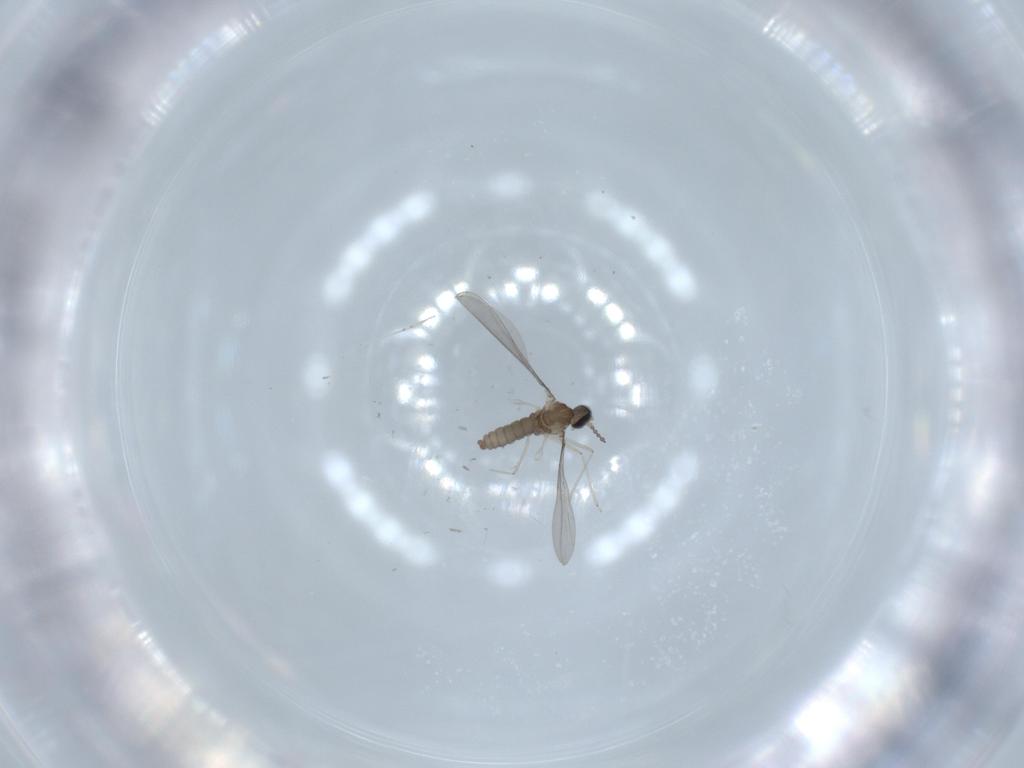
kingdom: Animalia
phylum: Arthropoda
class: Insecta
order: Diptera
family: Cecidomyiidae
